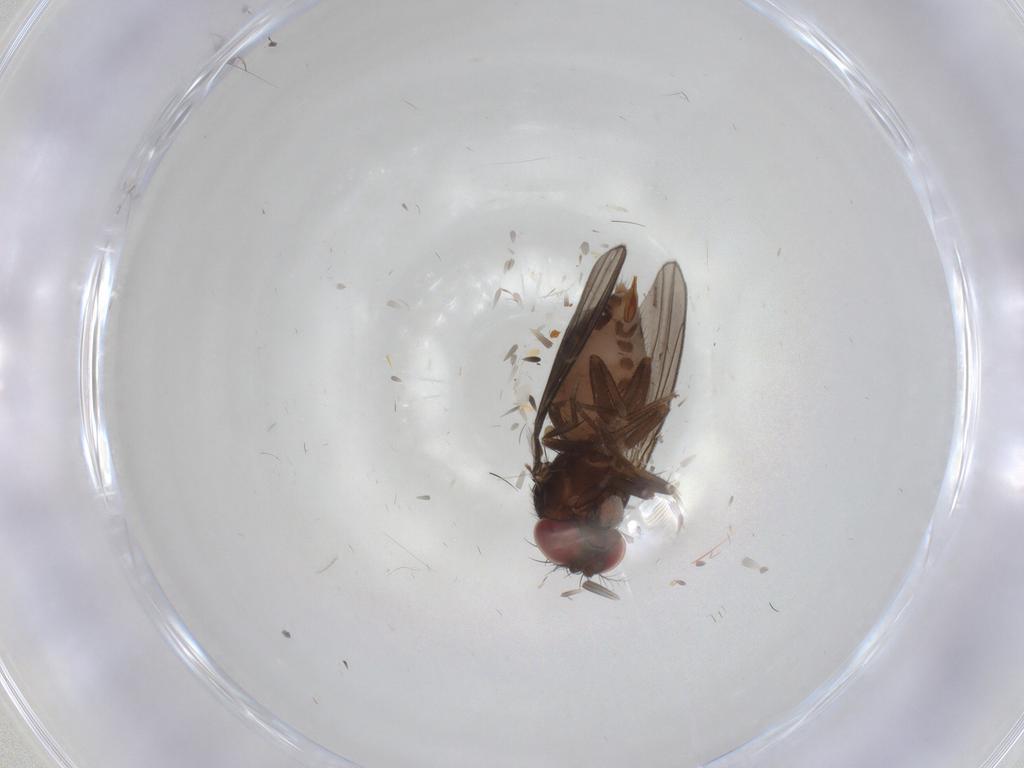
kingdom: Animalia
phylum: Arthropoda
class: Insecta
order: Diptera
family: Drosophilidae
